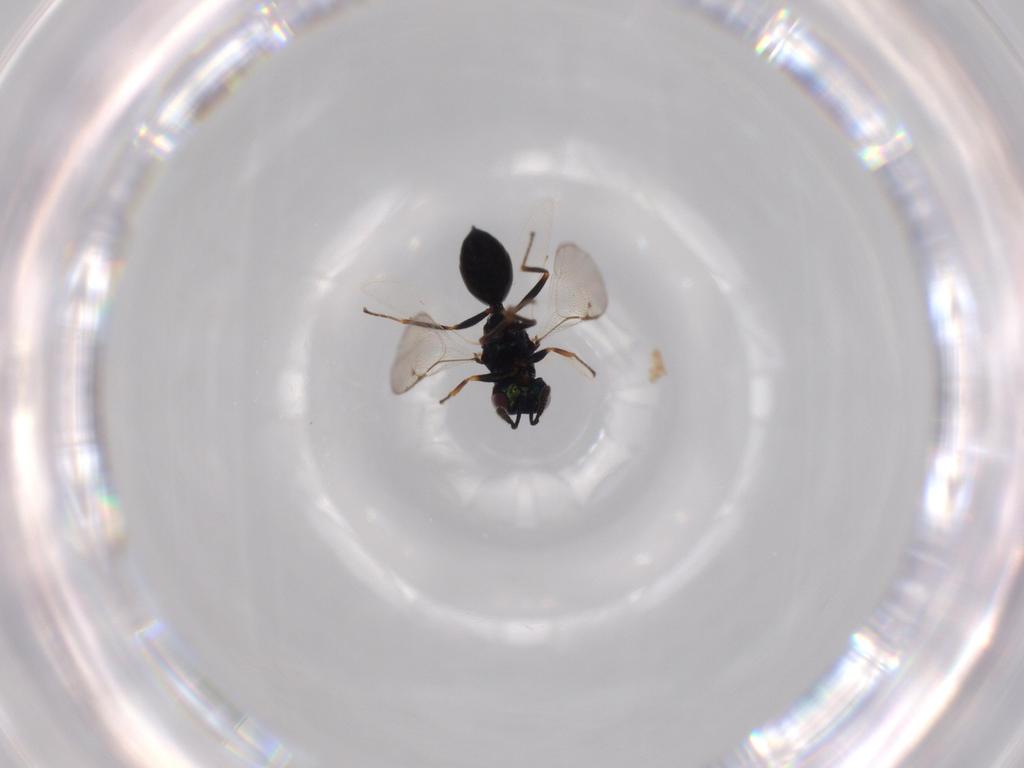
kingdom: Animalia
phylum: Arthropoda
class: Insecta
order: Hymenoptera
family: Pteromalidae
